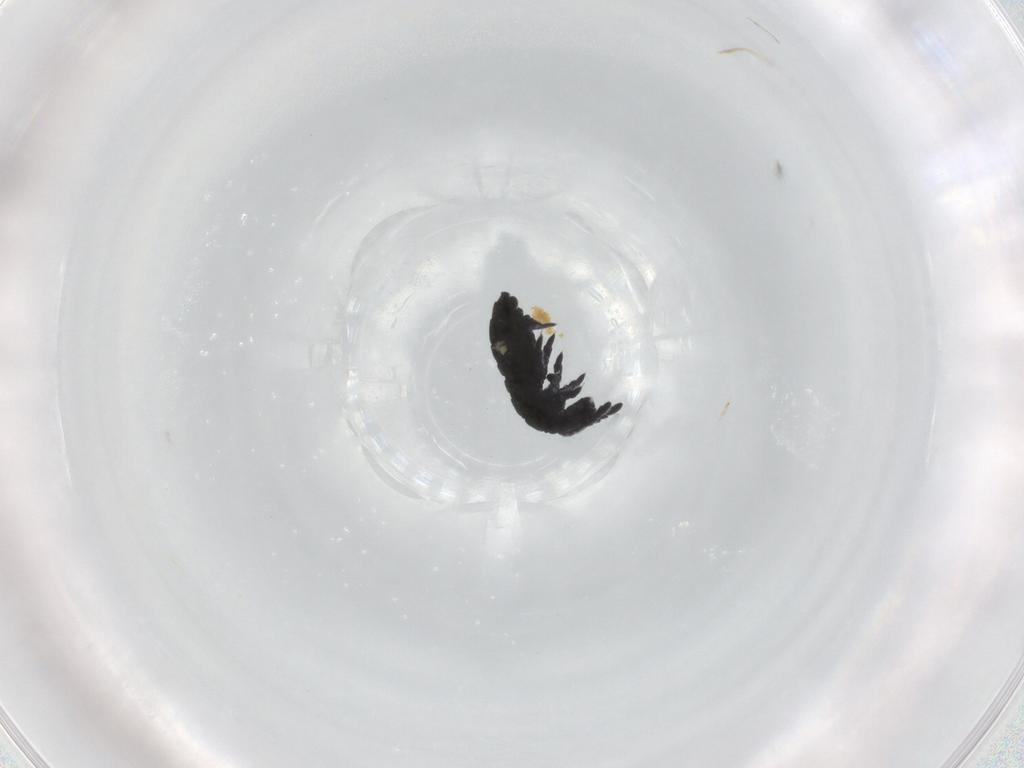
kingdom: Animalia
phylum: Arthropoda
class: Collembola
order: Poduromorpha
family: Hypogastruridae
